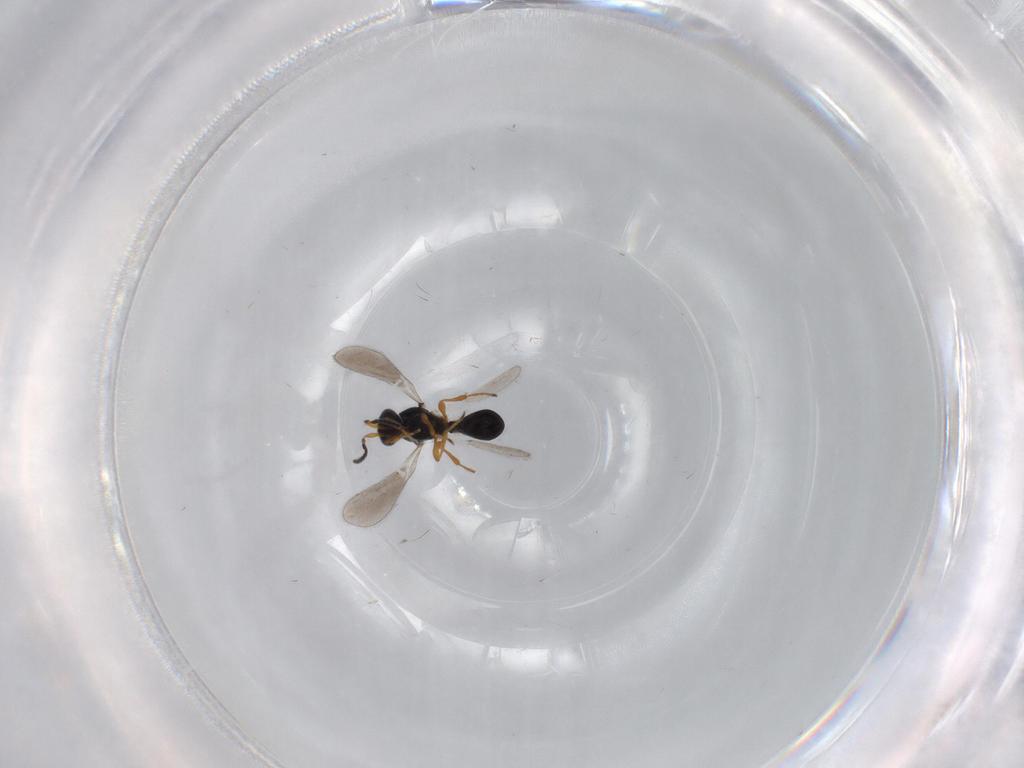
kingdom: Animalia
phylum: Arthropoda
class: Insecta
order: Hymenoptera
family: Platygastridae
